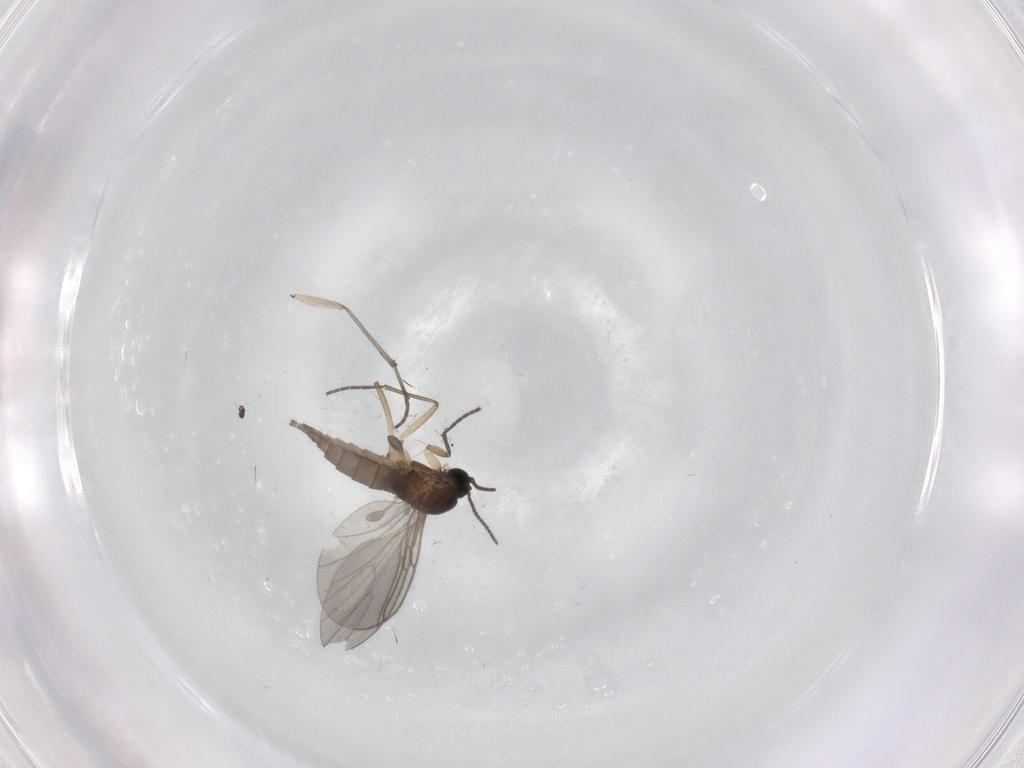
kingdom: Animalia
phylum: Arthropoda
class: Insecta
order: Diptera
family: Sciaridae
